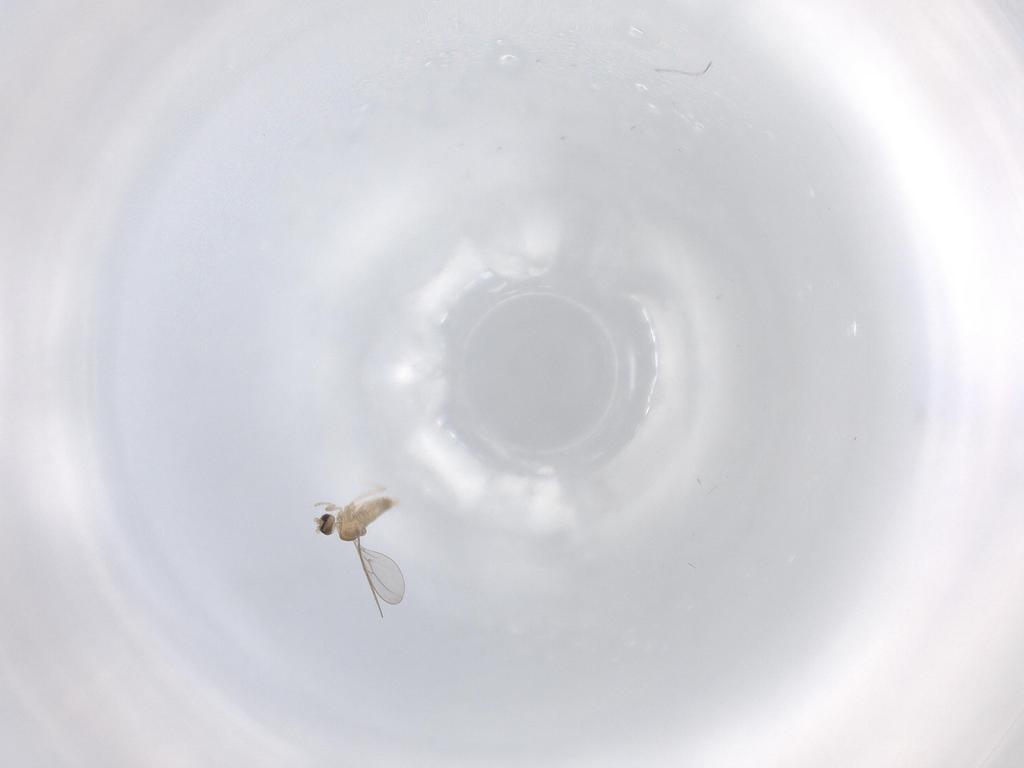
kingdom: Animalia
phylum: Arthropoda
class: Insecta
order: Diptera
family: Cecidomyiidae
